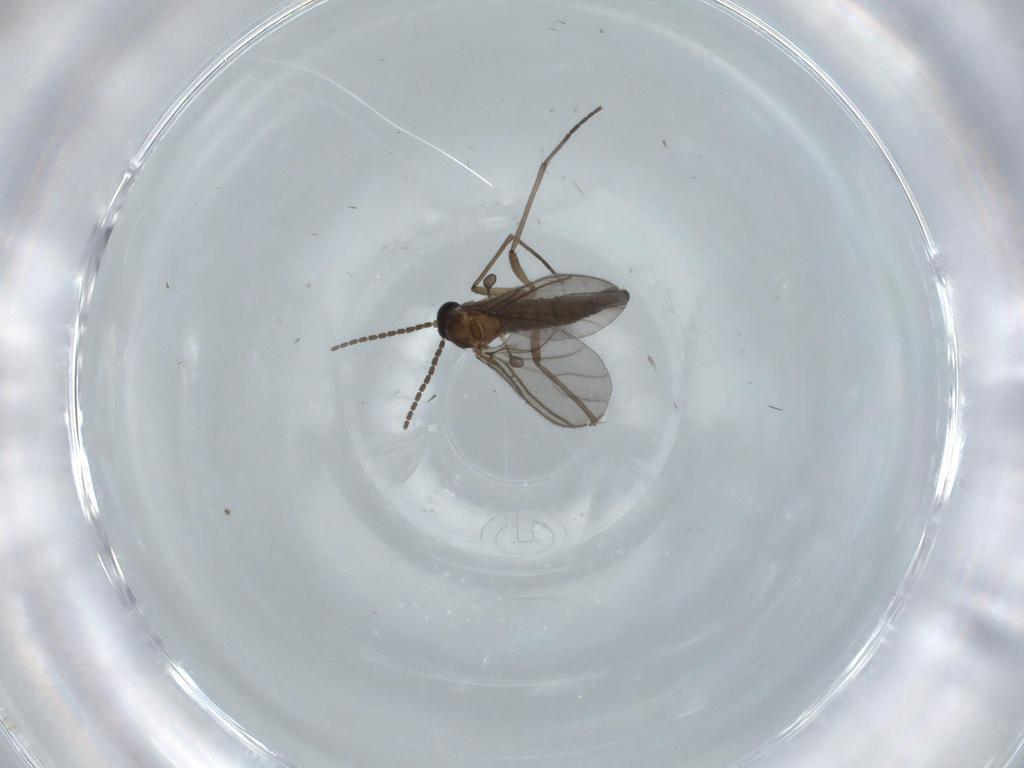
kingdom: Animalia
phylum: Arthropoda
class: Insecta
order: Diptera
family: Sciaridae
